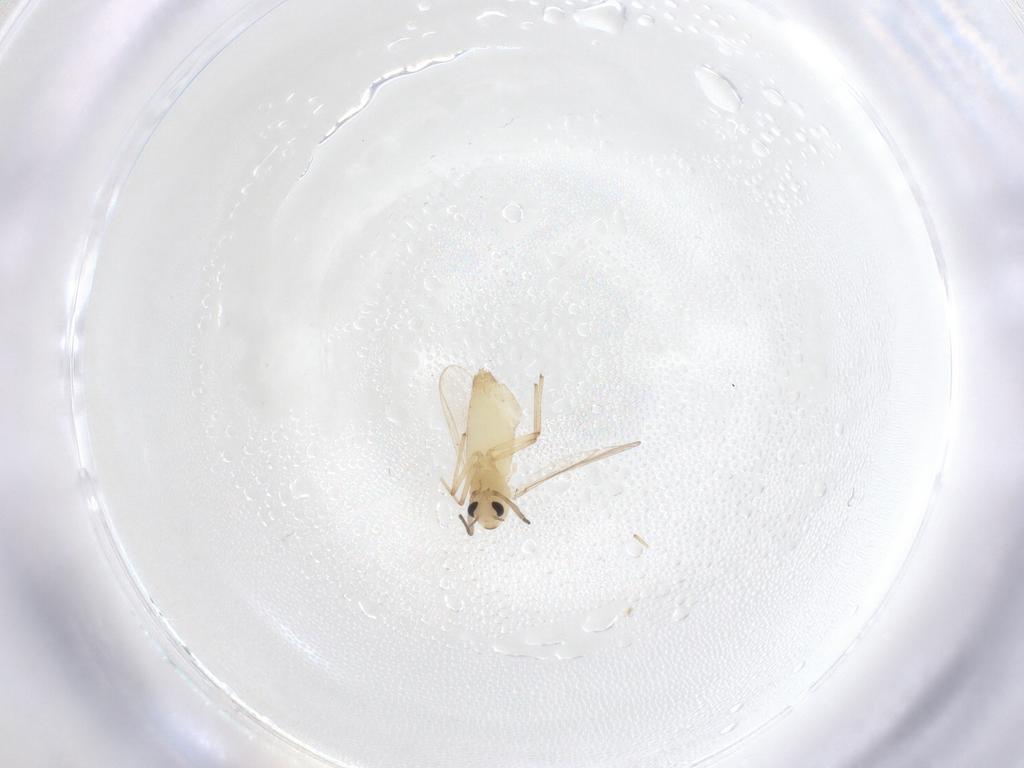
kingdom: Animalia
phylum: Arthropoda
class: Insecta
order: Diptera
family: Chironomidae
